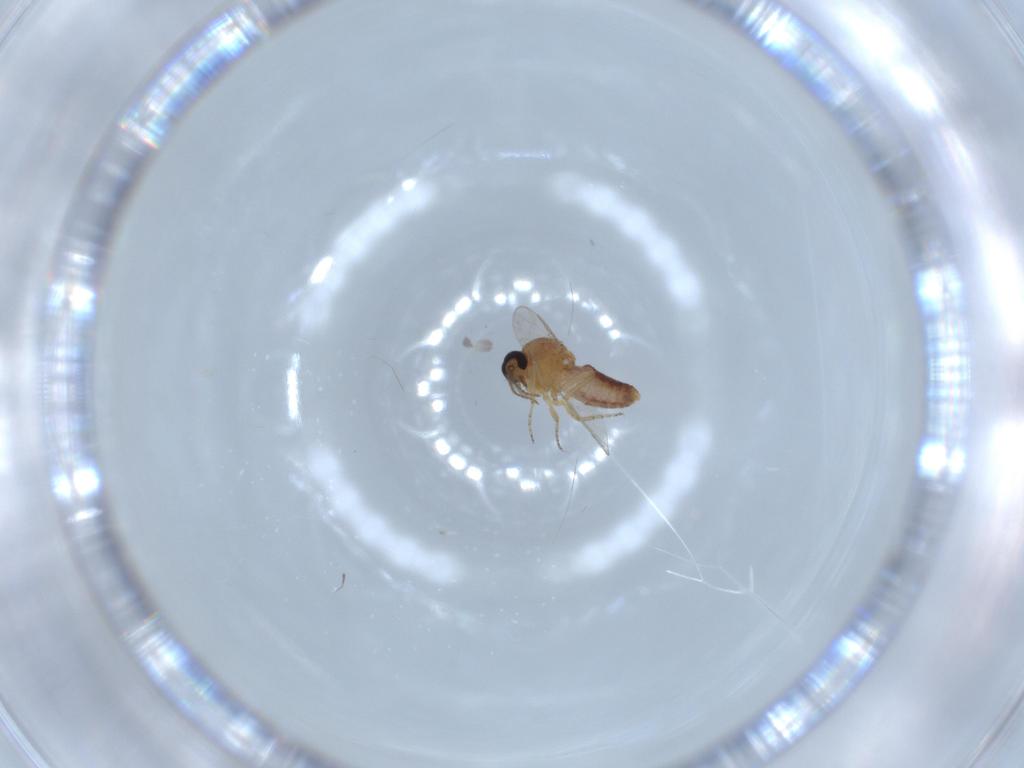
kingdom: Animalia
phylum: Arthropoda
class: Insecta
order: Diptera
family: Ceratopogonidae
